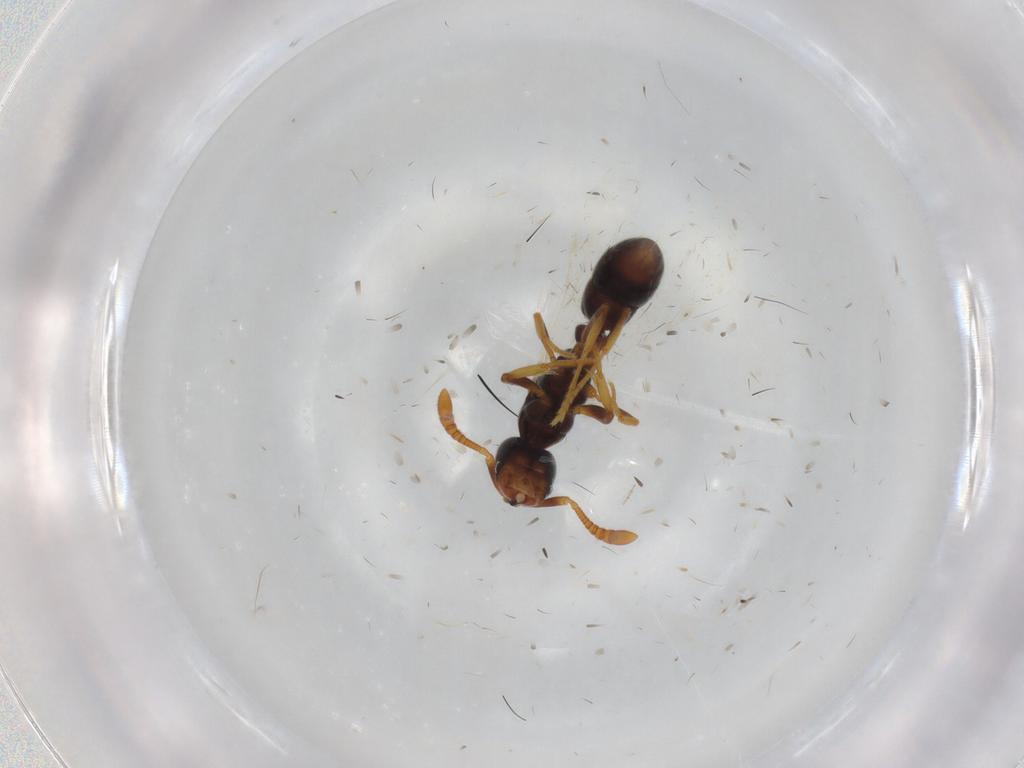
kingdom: Animalia
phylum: Arthropoda
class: Insecta
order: Hymenoptera
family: Formicidae
